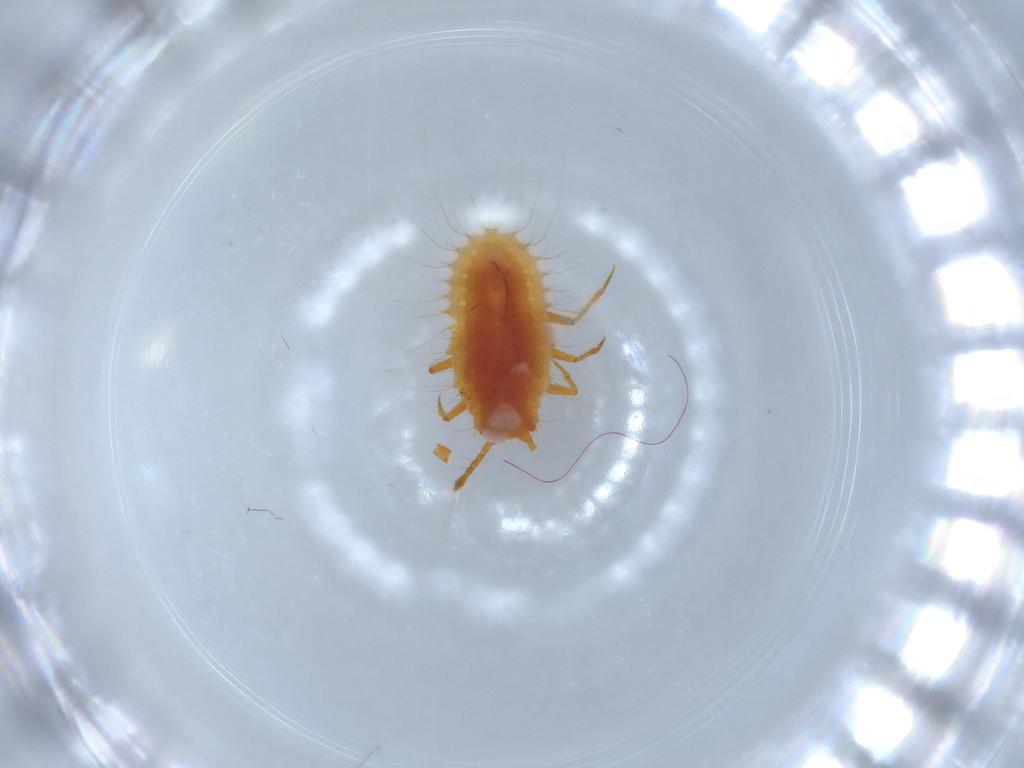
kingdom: Animalia
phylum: Arthropoda
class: Insecta
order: Hemiptera
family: Coccoidea_incertae_sedis
